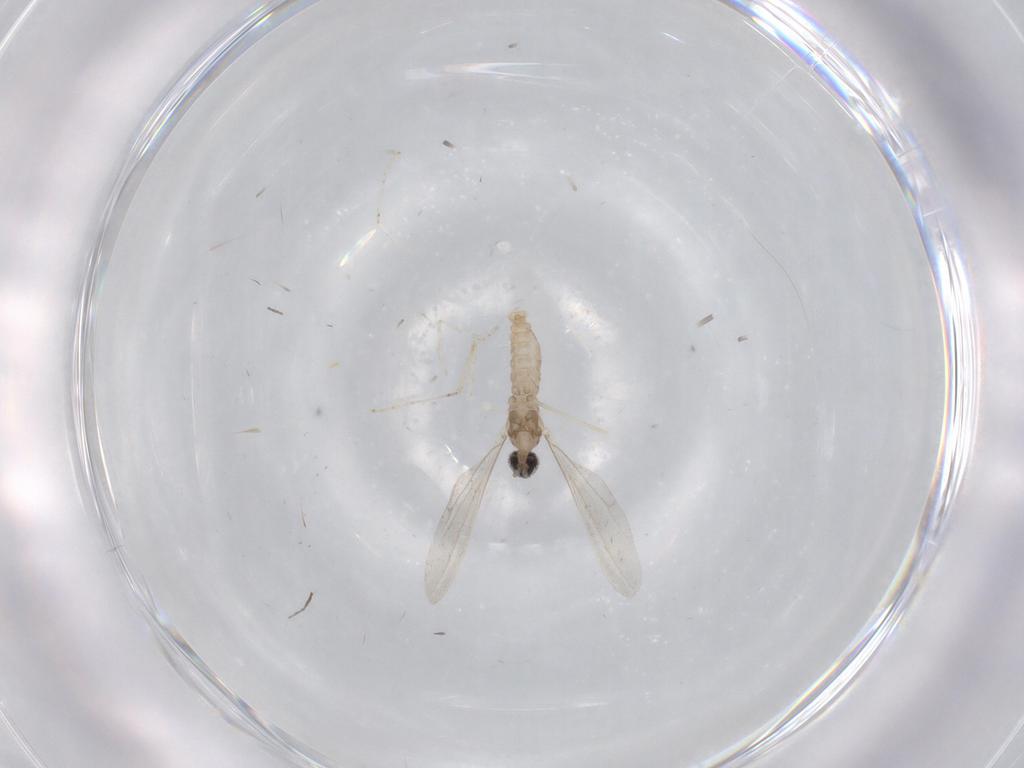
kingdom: Animalia
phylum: Arthropoda
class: Insecta
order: Diptera
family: Cecidomyiidae
